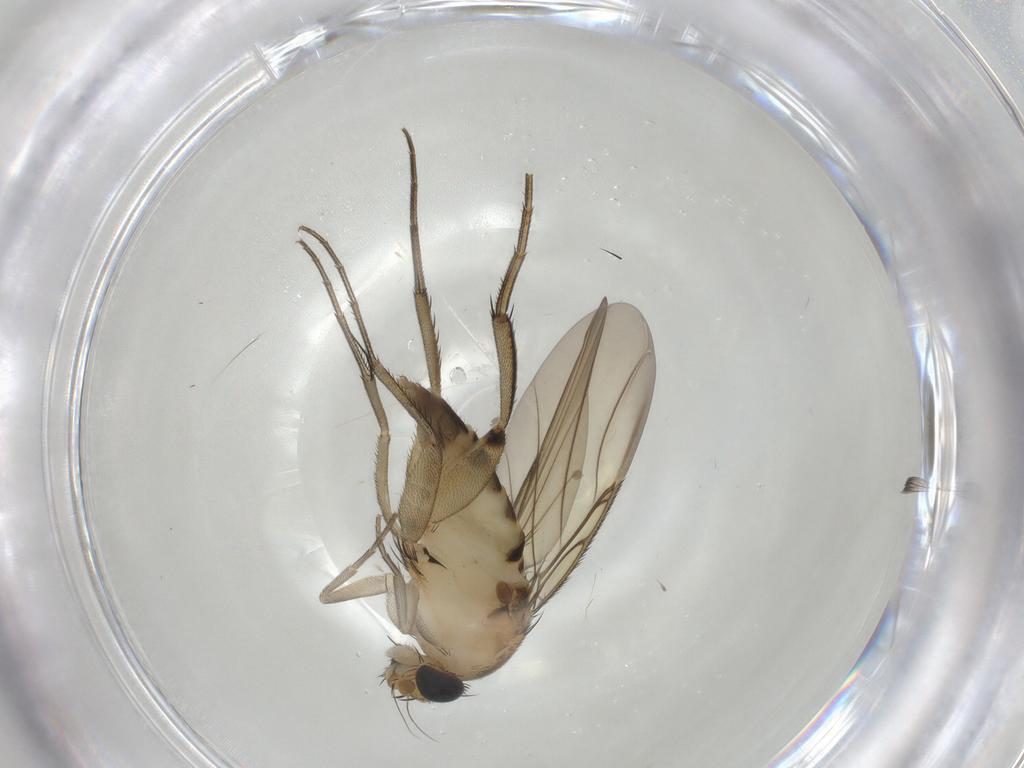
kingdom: Animalia
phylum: Arthropoda
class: Insecta
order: Diptera
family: Phoridae
